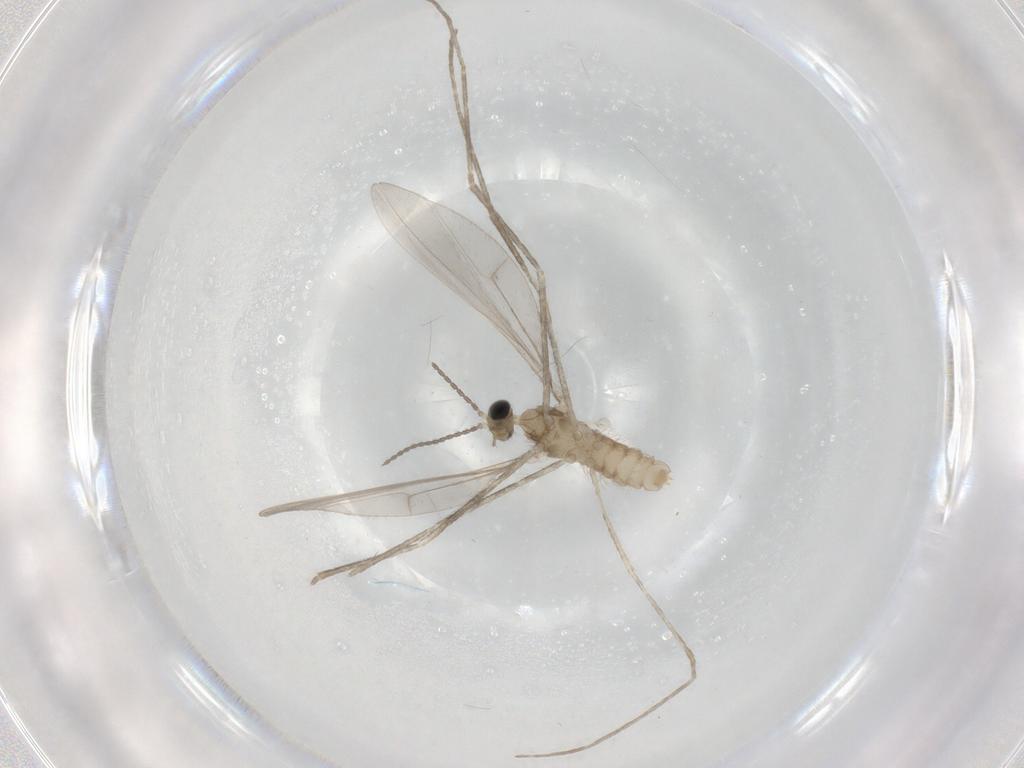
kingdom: Animalia
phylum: Arthropoda
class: Insecta
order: Diptera
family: Cecidomyiidae
